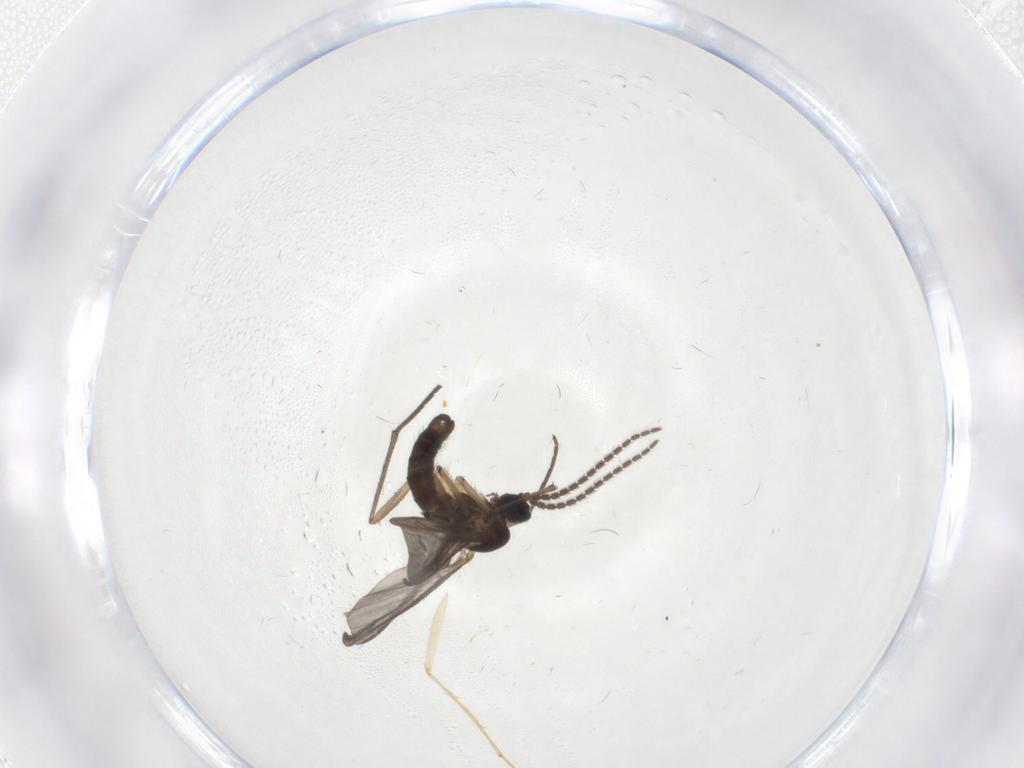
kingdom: Animalia
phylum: Arthropoda
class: Insecta
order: Diptera
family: Sciaridae
